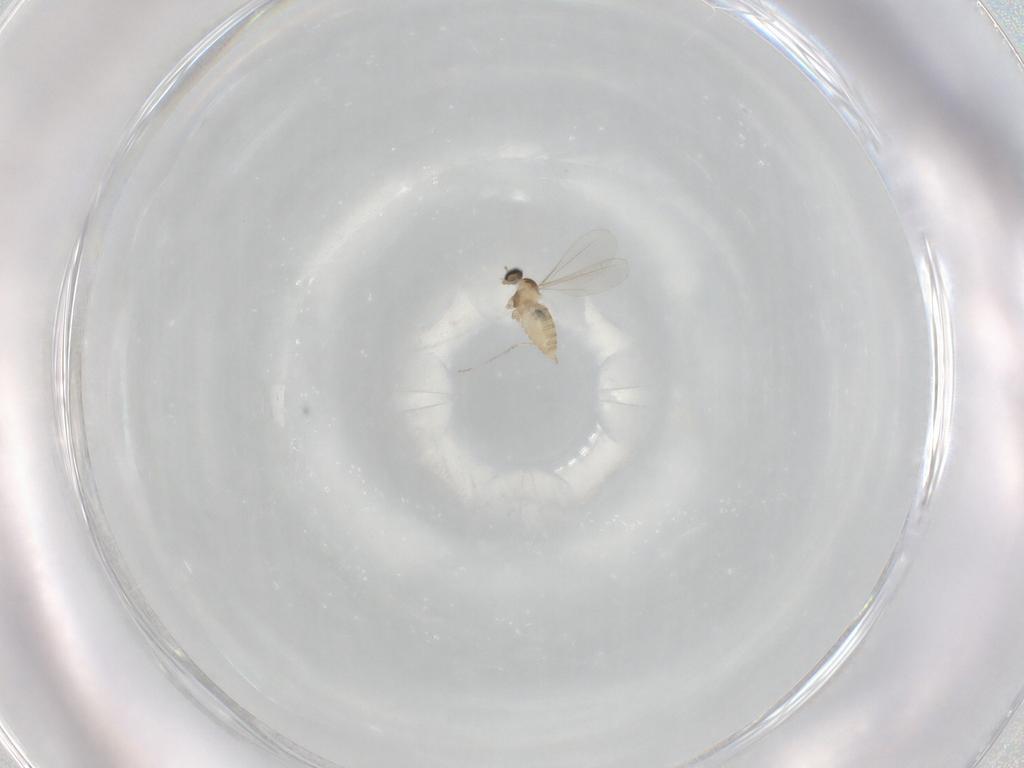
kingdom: Animalia
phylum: Arthropoda
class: Insecta
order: Diptera
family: Cecidomyiidae
